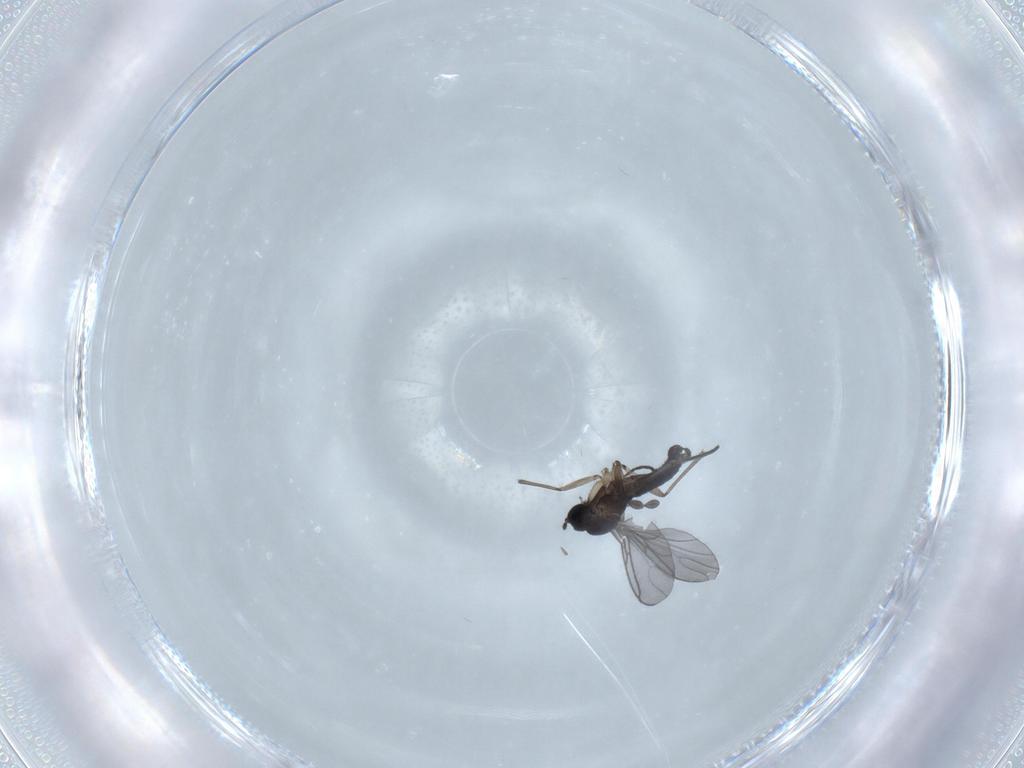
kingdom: Animalia
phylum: Arthropoda
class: Insecta
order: Diptera
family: Sciaridae
